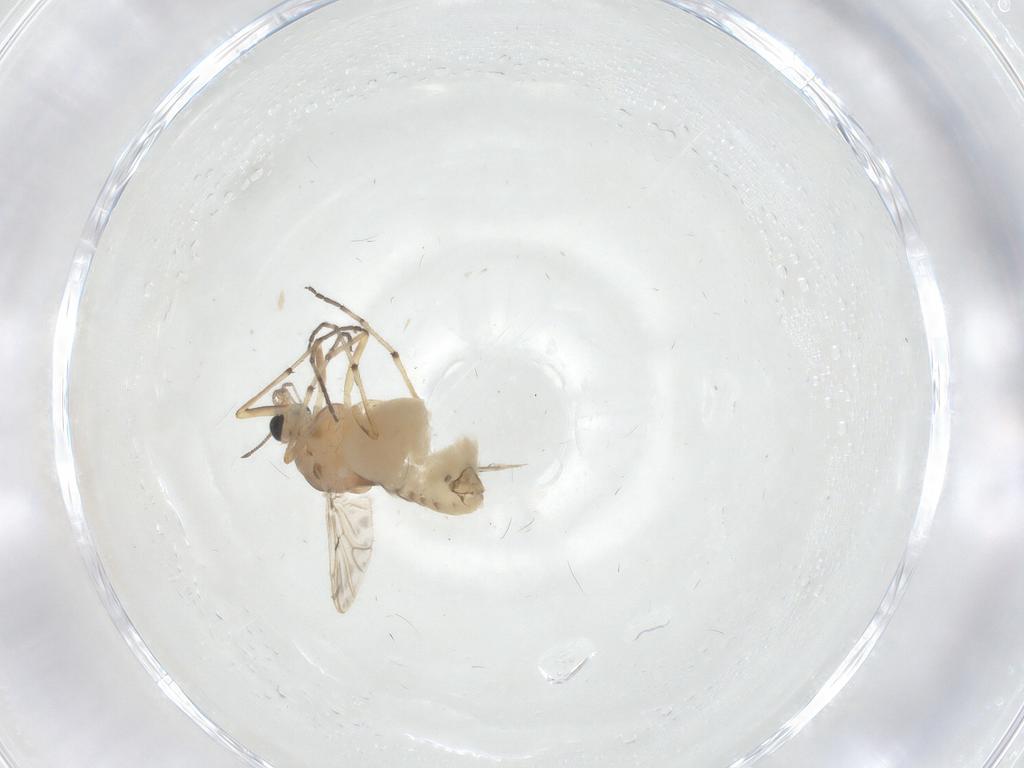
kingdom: Animalia
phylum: Arthropoda
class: Insecta
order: Diptera
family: Chironomidae
